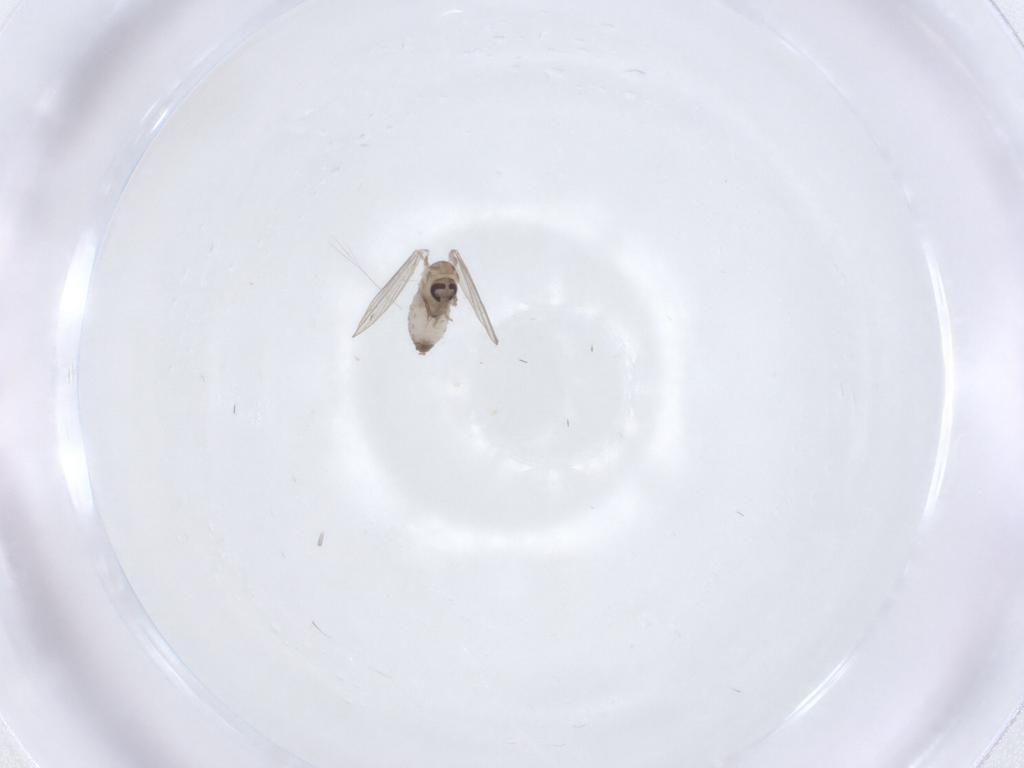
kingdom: Animalia
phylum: Arthropoda
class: Insecta
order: Diptera
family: Psychodidae
